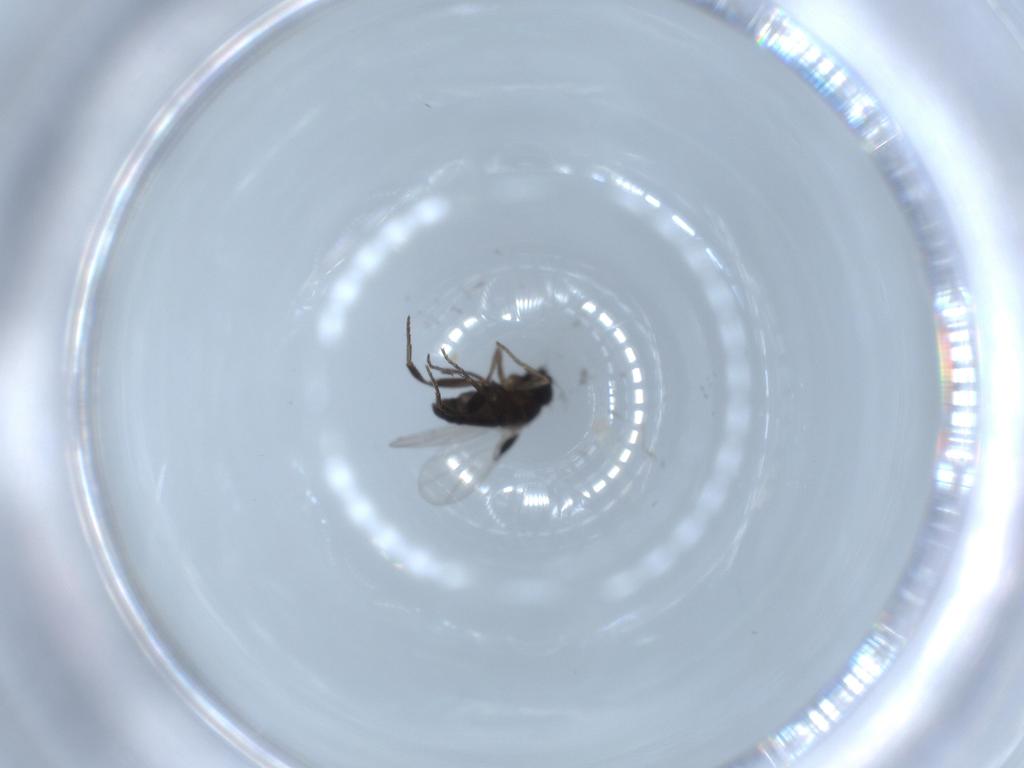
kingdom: Animalia
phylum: Arthropoda
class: Insecta
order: Diptera
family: Phoridae
